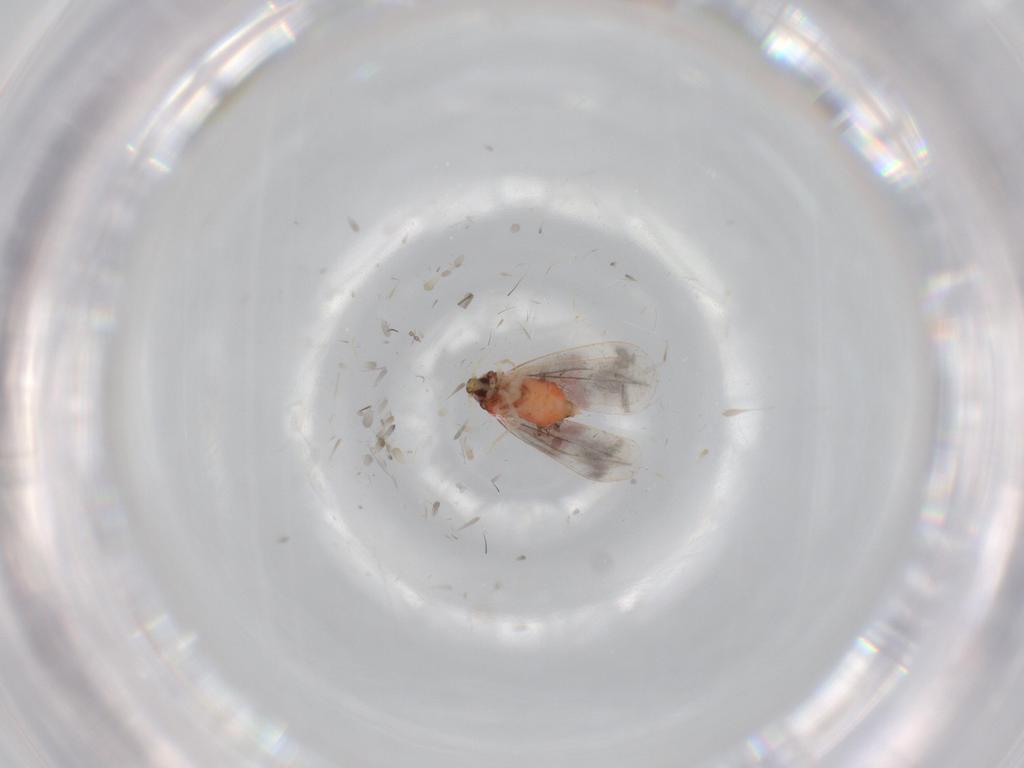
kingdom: Animalia
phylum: Arthropoda
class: Insecta
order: Hemiptera
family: Aleyrodidae
